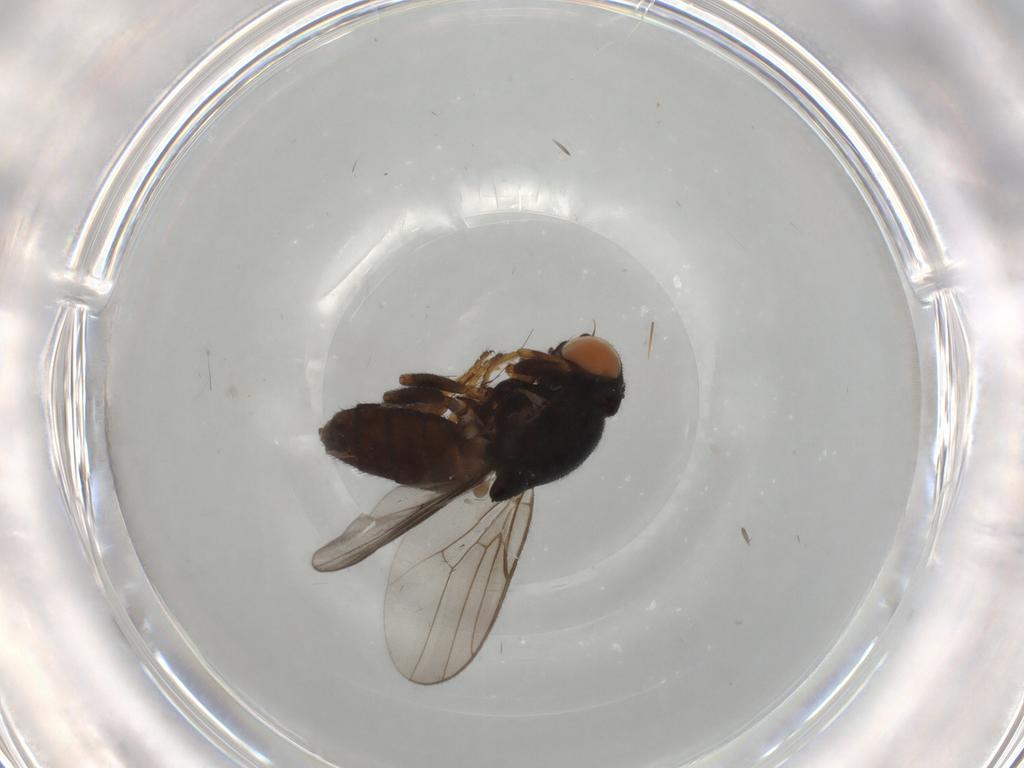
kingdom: Animalia
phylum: Arthropoda
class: Insecta
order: Diptera
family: Chloropidae
